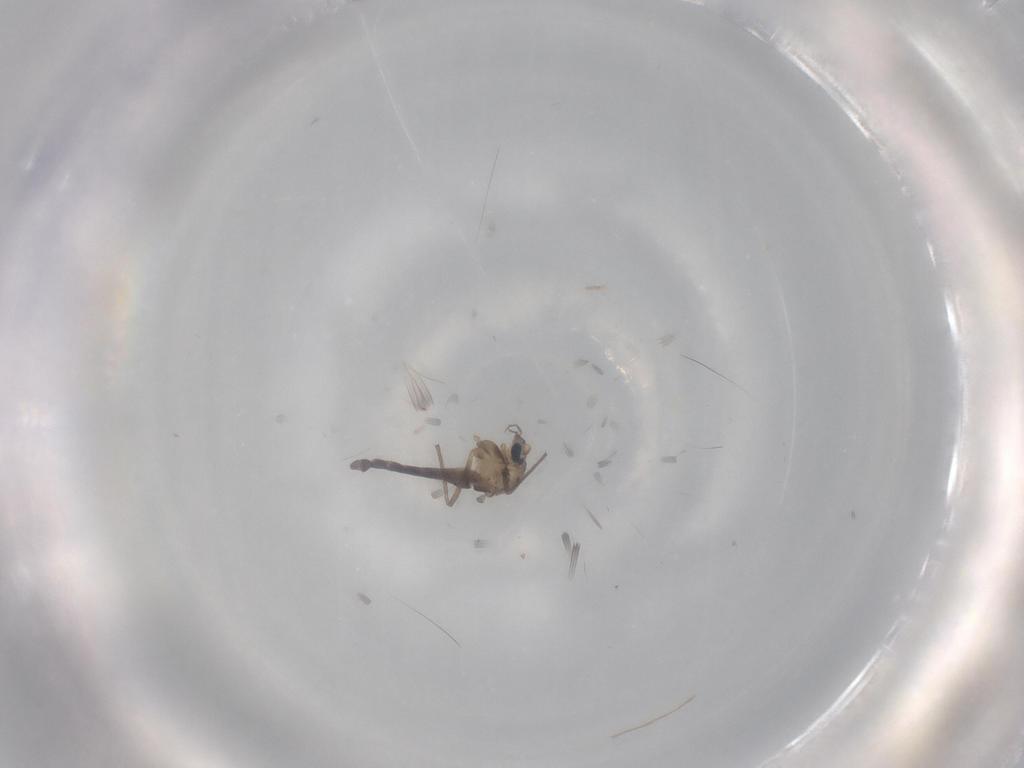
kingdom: Animalia
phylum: Arthropoda
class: Insecta
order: Diptera
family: Chironomidae
